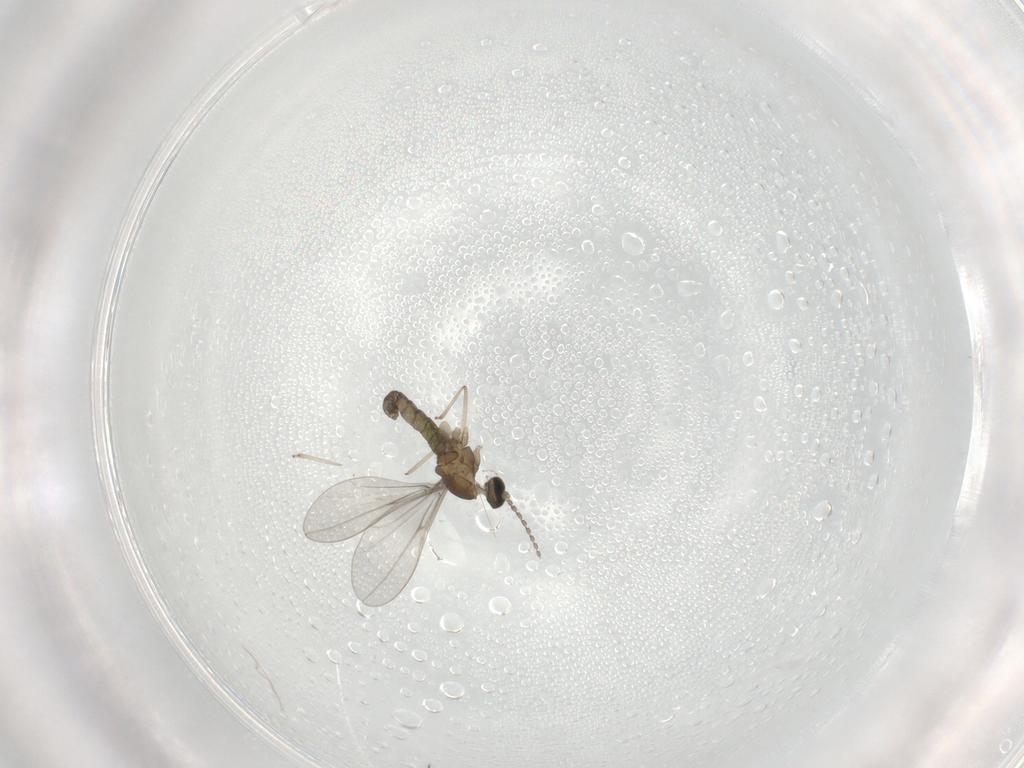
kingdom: Animalia
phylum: Arthropoda
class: Insecta
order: Diptera
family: Cecidomyiidae
